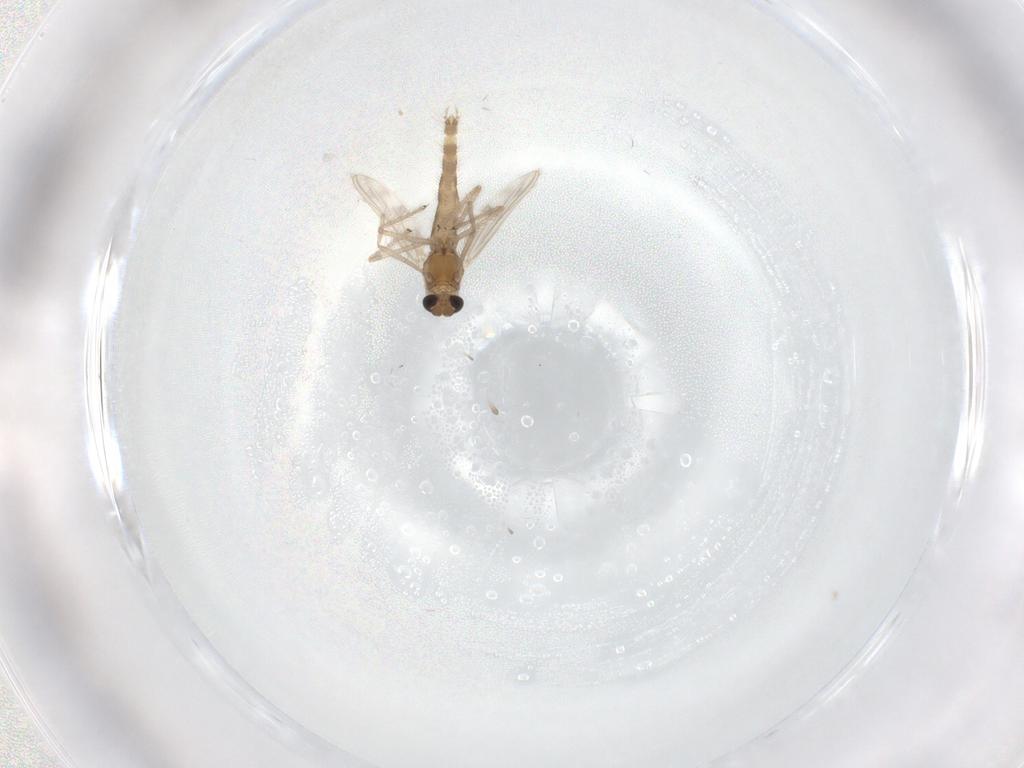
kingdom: Animalia
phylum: Arthropoda
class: Insecta
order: Diptera
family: Chironomidae
